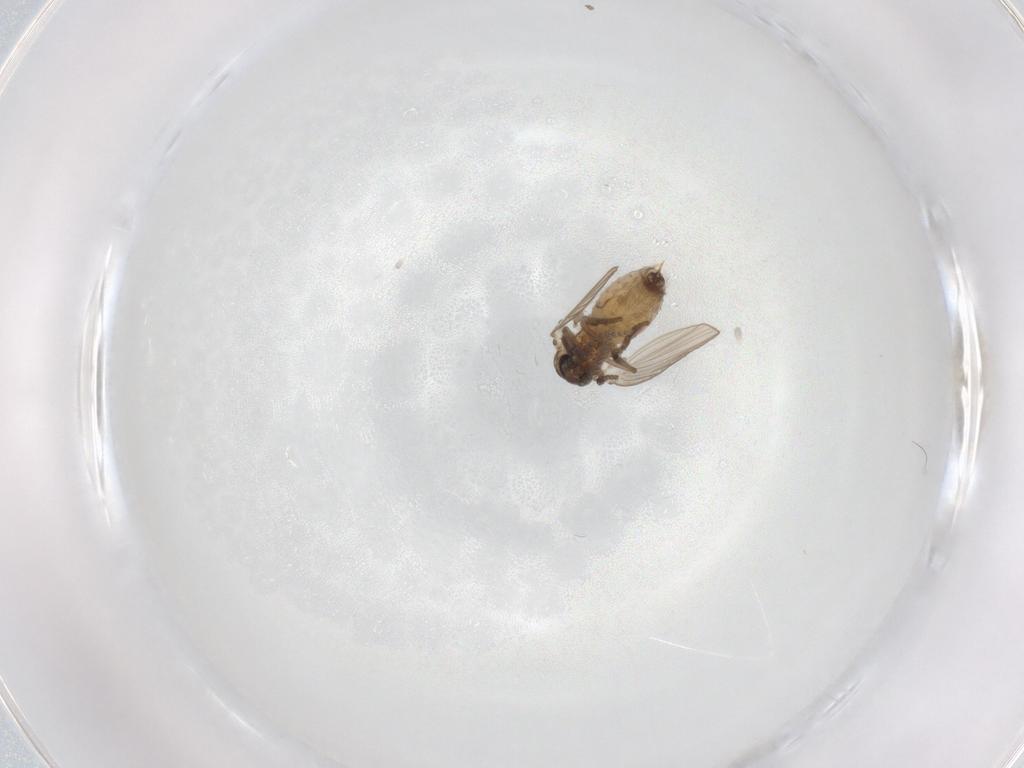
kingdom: Animalia
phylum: Arthropoda
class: Insecta
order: Diptera
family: Psychodidae
